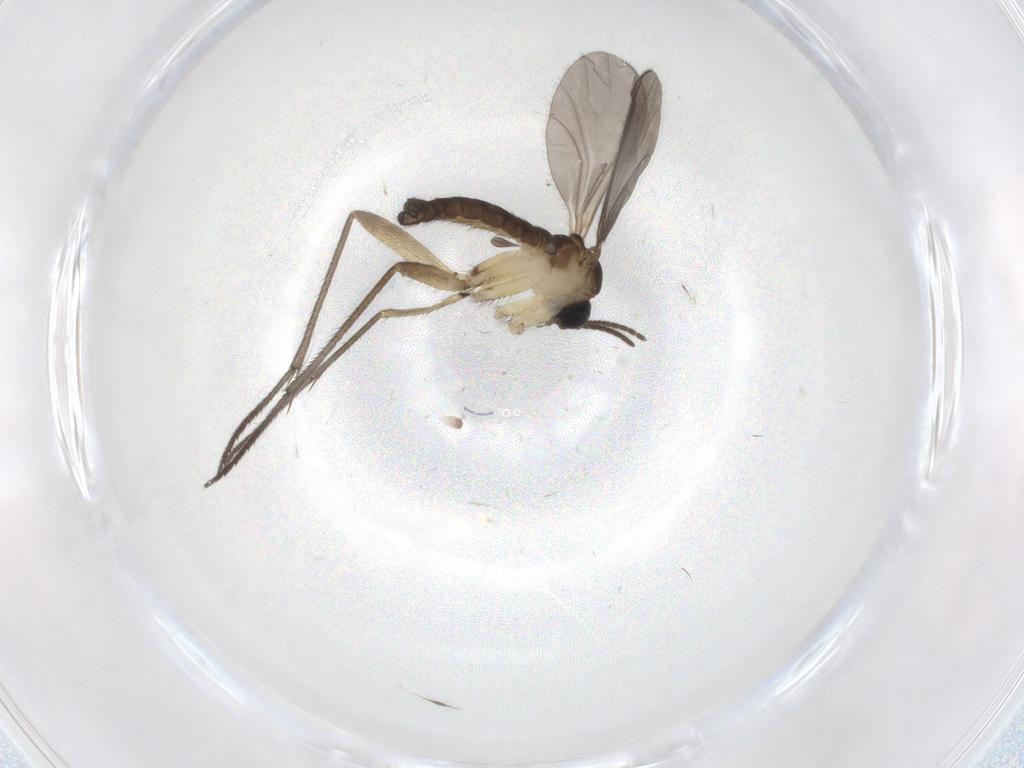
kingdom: Animalia
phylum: Arthropoda
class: Insecta
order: Diptera
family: Sciaridae
